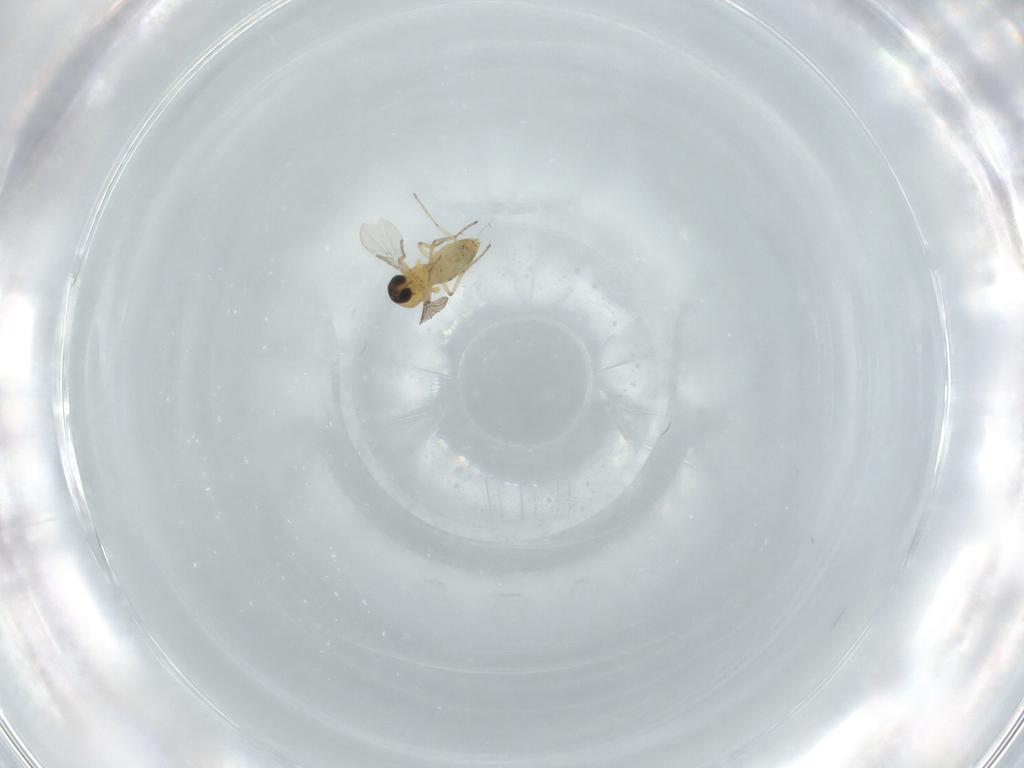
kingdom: Animalia
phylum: Arthropoda
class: Insecta
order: Diptera
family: Ceratopogonidae
